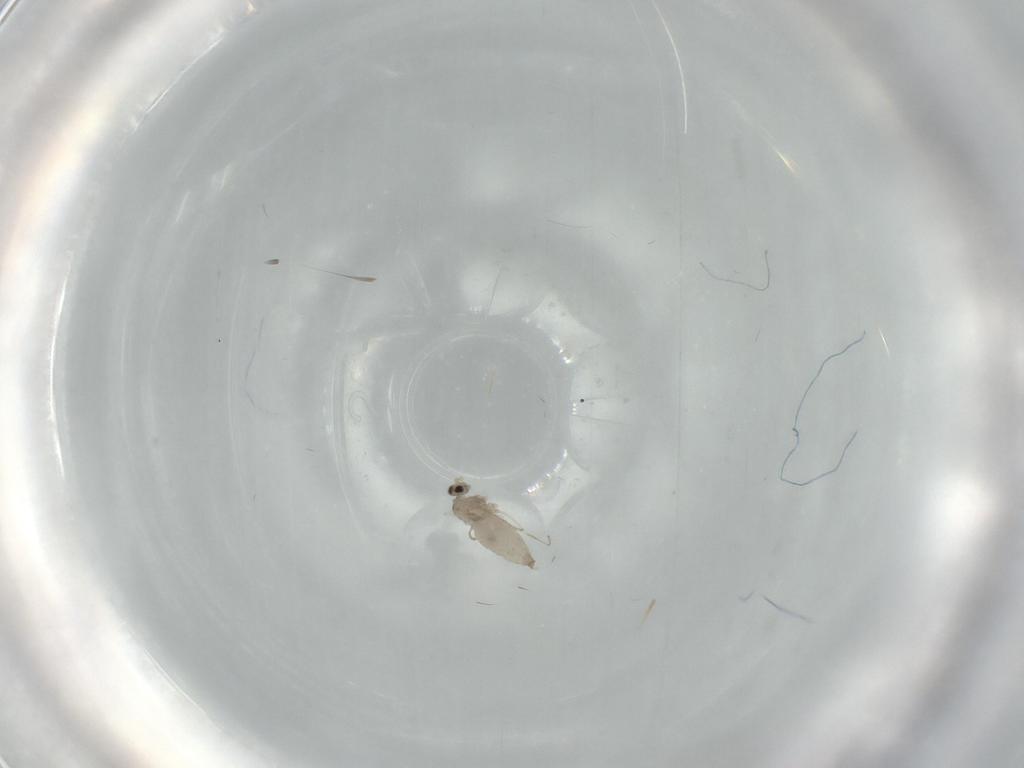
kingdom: Animalia
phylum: Arthropoda
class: Insecta
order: Diptera
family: Cecidomyiidae
